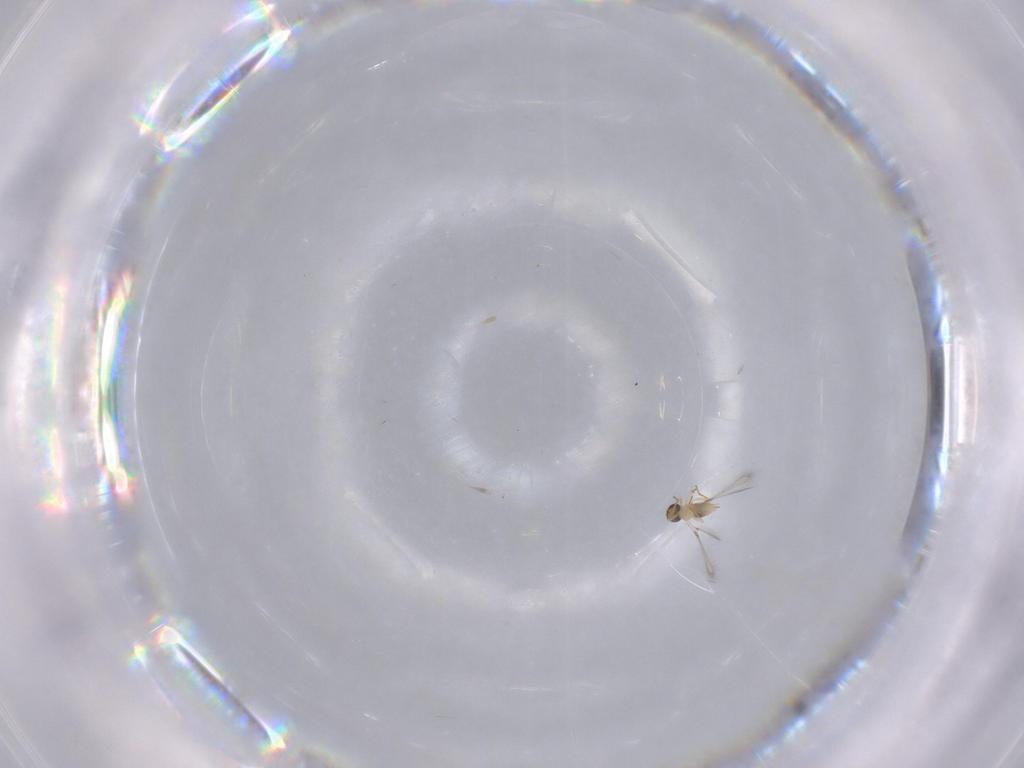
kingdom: Animalia
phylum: Arthropoda
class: Insecta
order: Hymenoptera
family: Mymaridae
